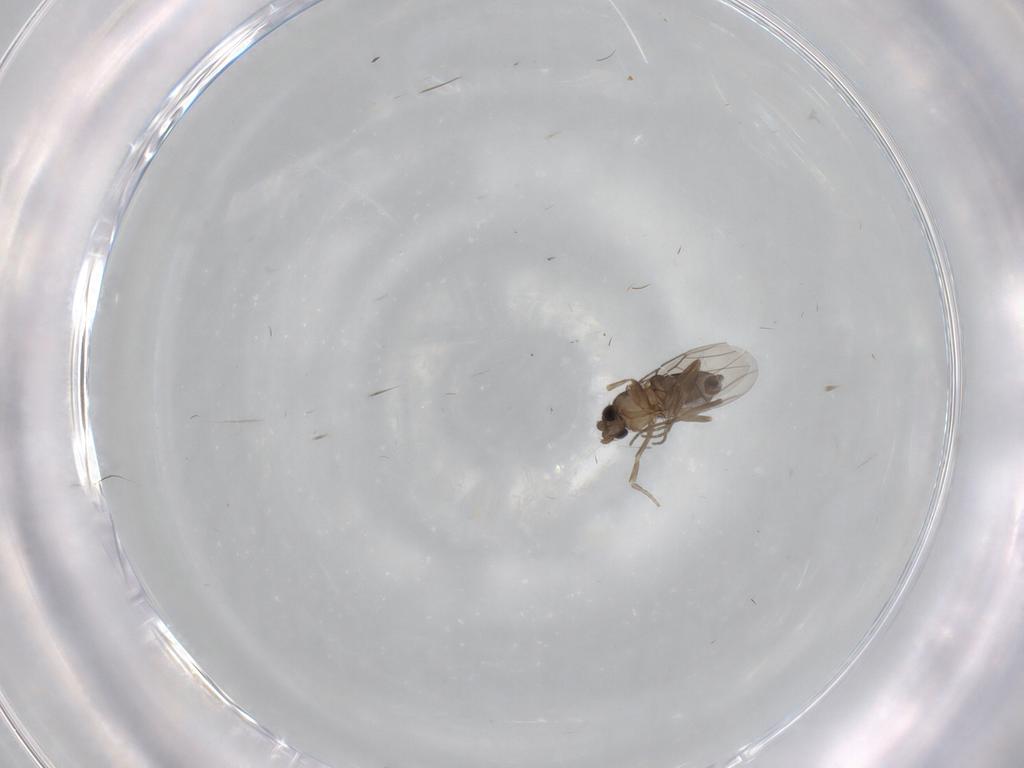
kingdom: Animalia
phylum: Arthropoda
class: Insecta
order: Diptera
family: Phoridae
